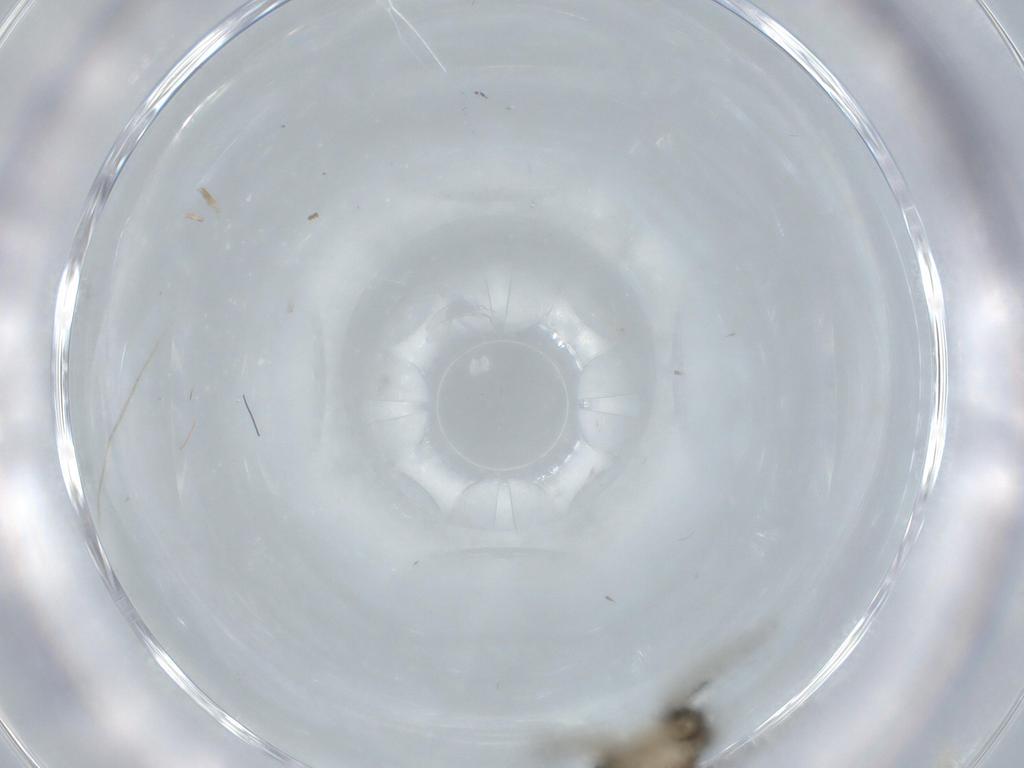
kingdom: Animalia
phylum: Arthropoda
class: Insecta
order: Diptera
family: Phoridae
